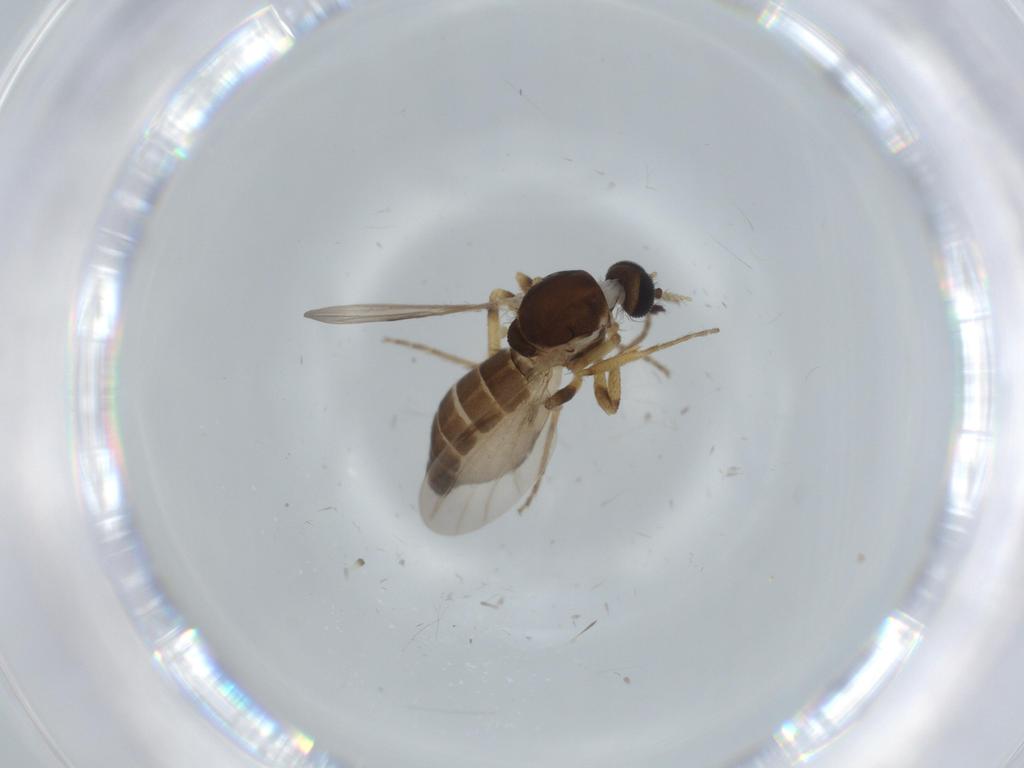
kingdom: Animalia
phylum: Arthropoda
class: Insecta
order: Diptera
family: Ceratopogonidae
